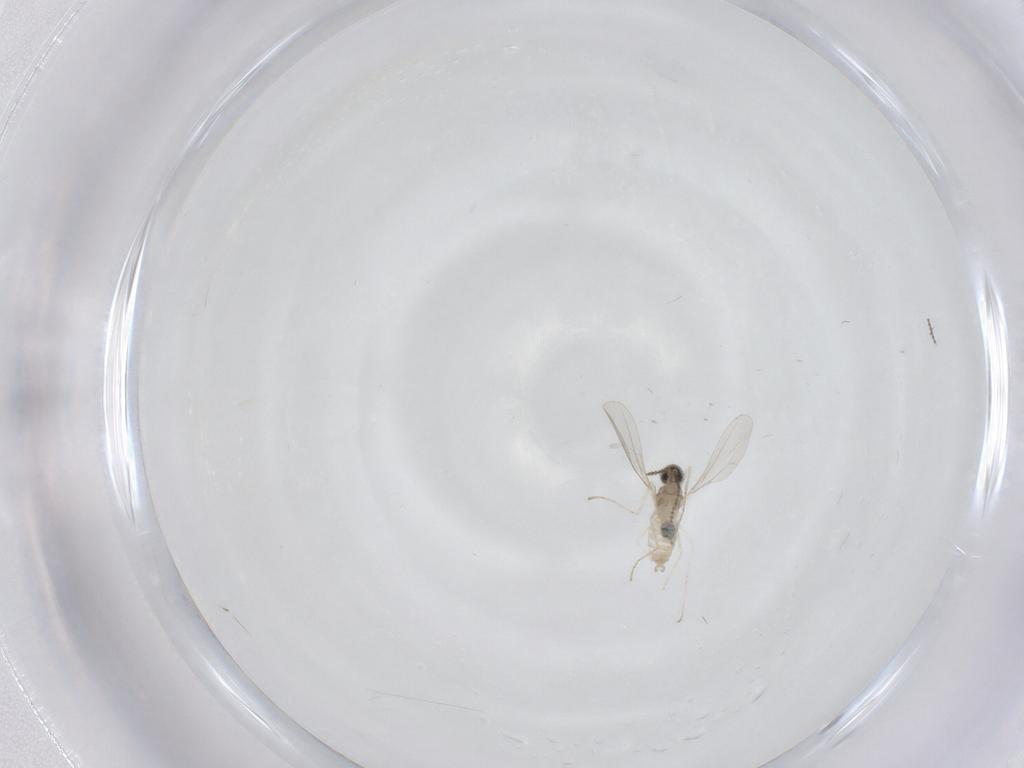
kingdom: Animalia
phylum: Arthropoda
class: Insecta
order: Diptera
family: Cecidomyiidae
